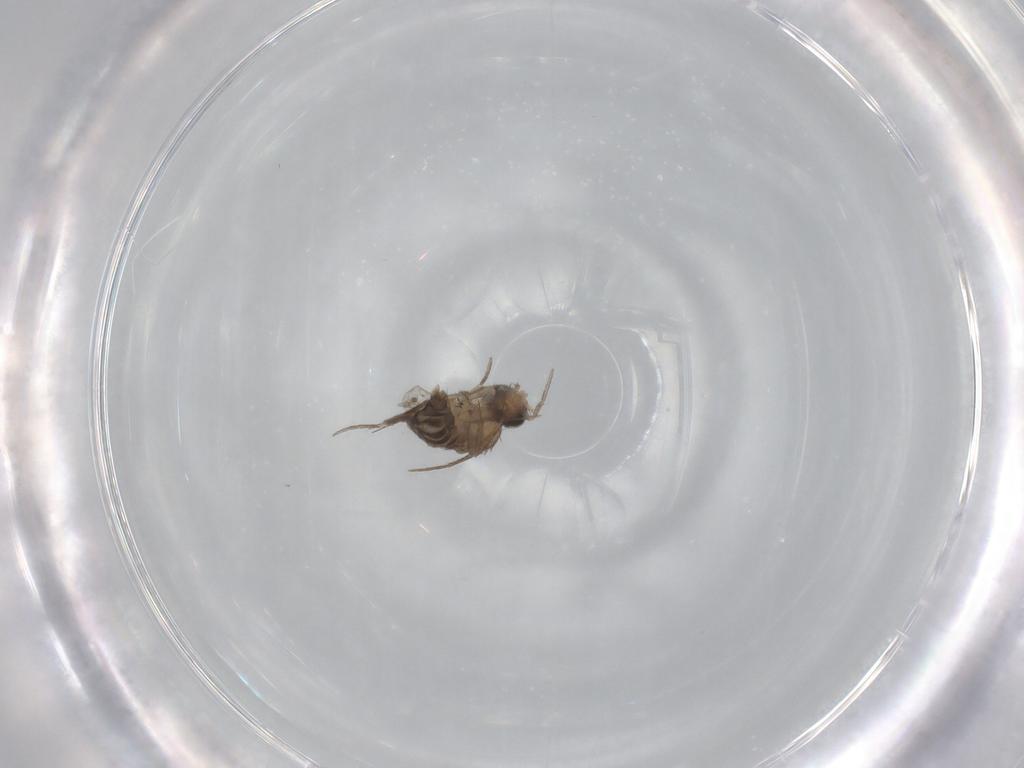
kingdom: Animalia
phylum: Arthropoda
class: Insecta
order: Diptera
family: Phoridae
